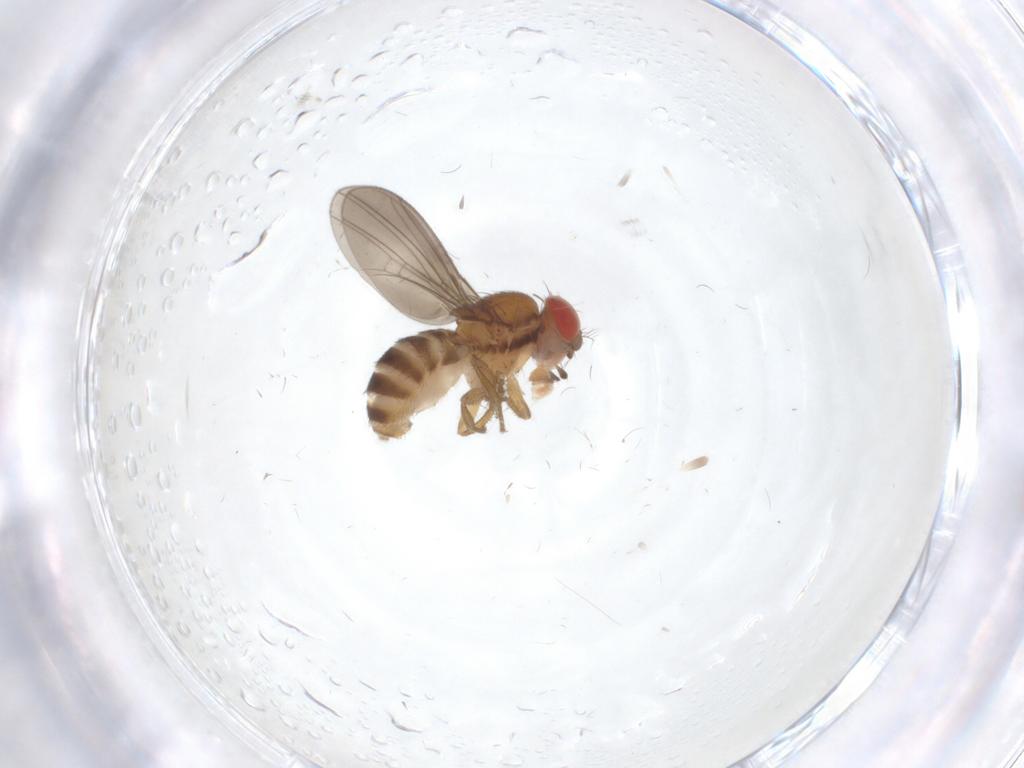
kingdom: Animalia
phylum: Arthropoda
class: Insecta
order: Diptera
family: Drosophilidae
